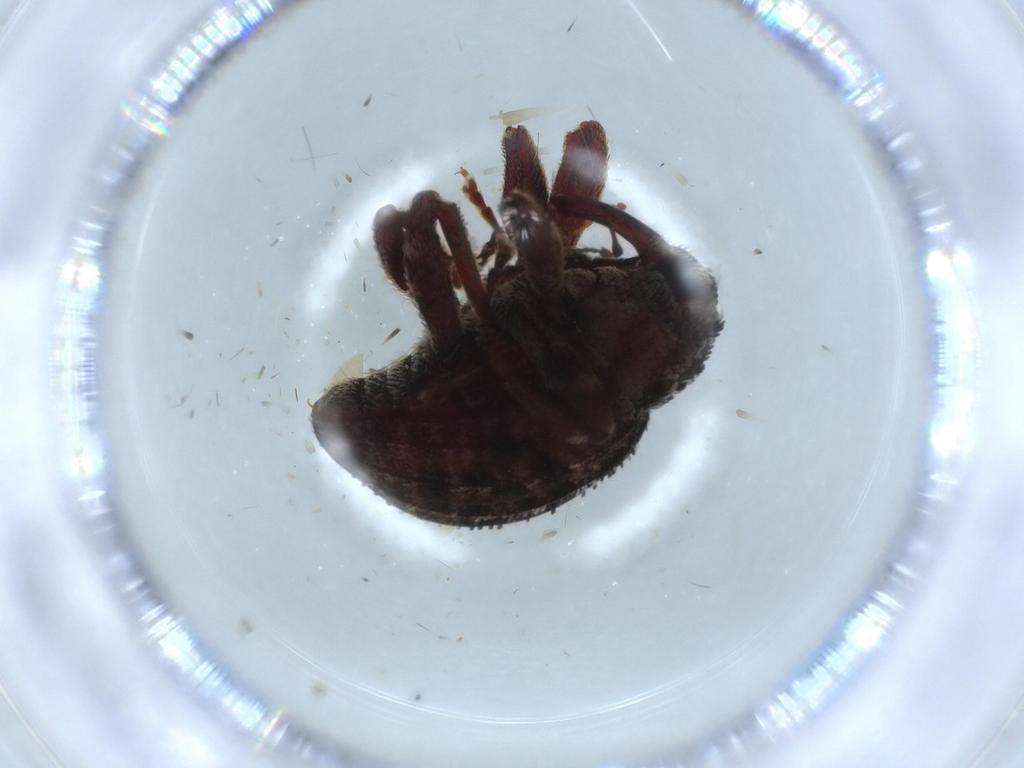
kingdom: Animalia
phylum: Arthropoda
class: Insecta
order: Coleoptera
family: Curculionidae
